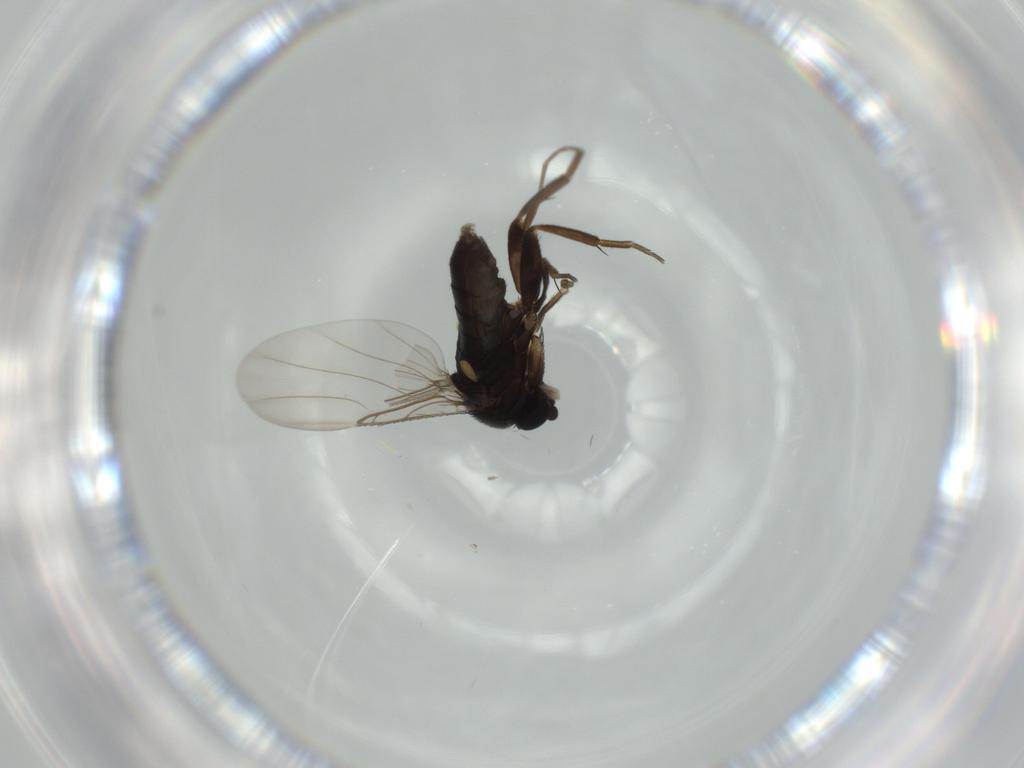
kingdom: Animalia
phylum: Arthropoda
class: Insecta
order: Diptera
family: Phoridae
